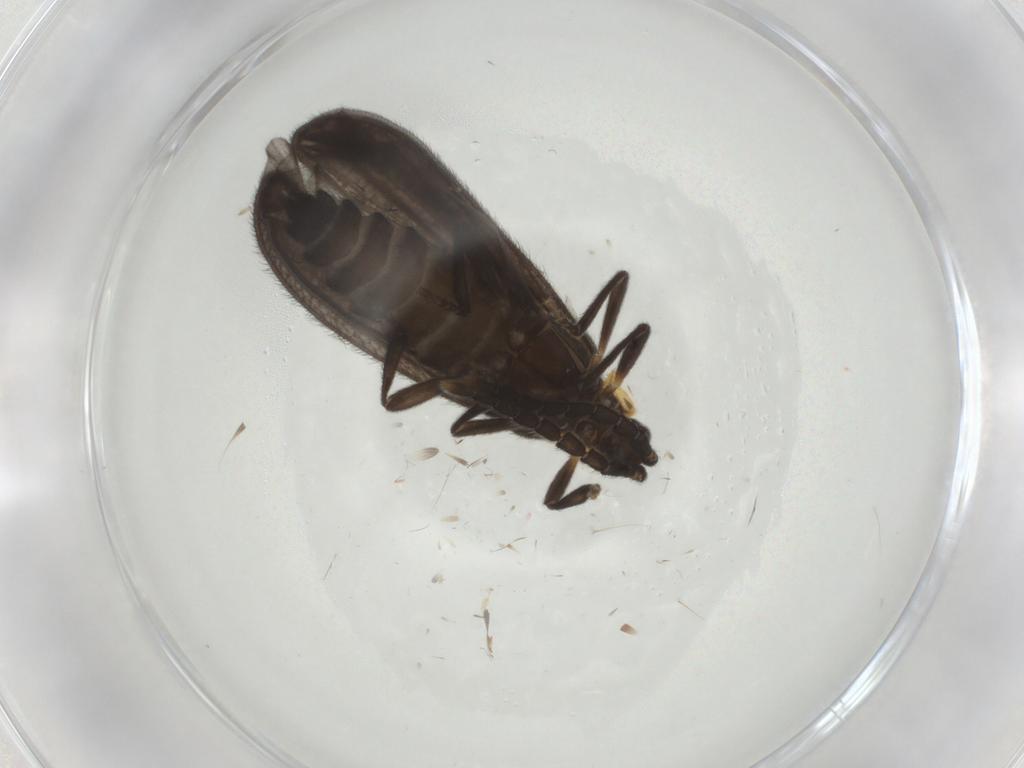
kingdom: Animalia
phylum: Arthropoda
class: Insecta
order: Coleoptera
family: Lycidae
